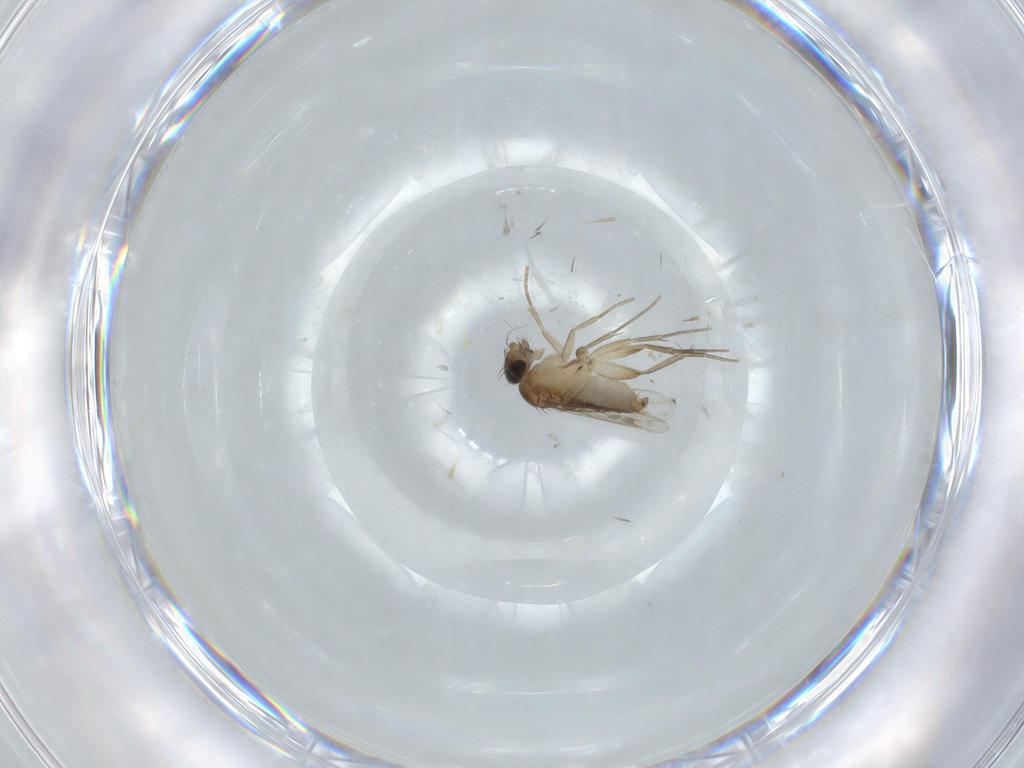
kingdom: Animalia
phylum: Arthropoda
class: Insecta
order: Diptera
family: Phoridae
